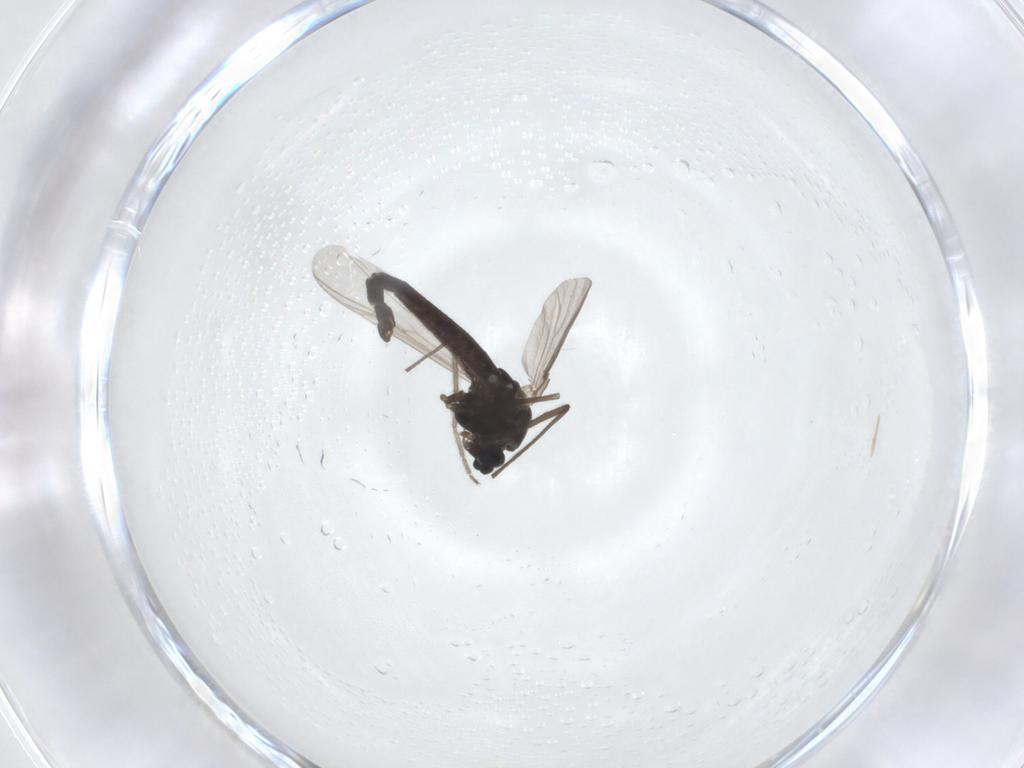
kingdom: Animalia
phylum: Arthropoda
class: Insecta
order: Diptera
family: Chironomidae
